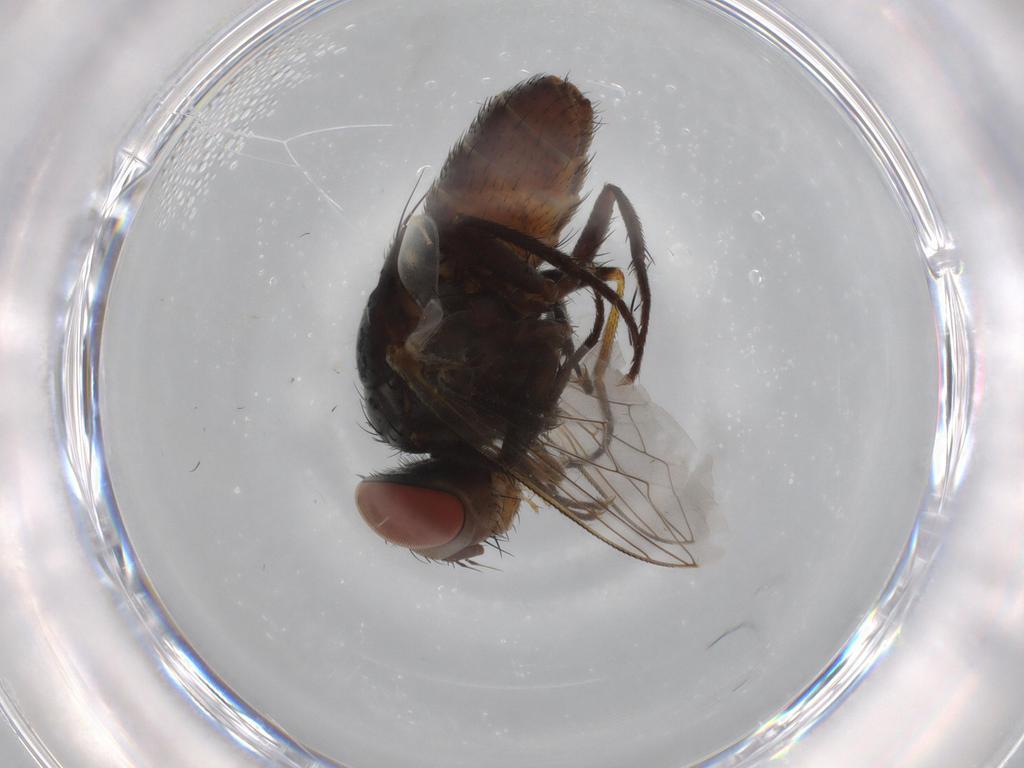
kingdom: Animalia
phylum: Arthropoda
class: Insecta
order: Diptera
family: Muscidae
